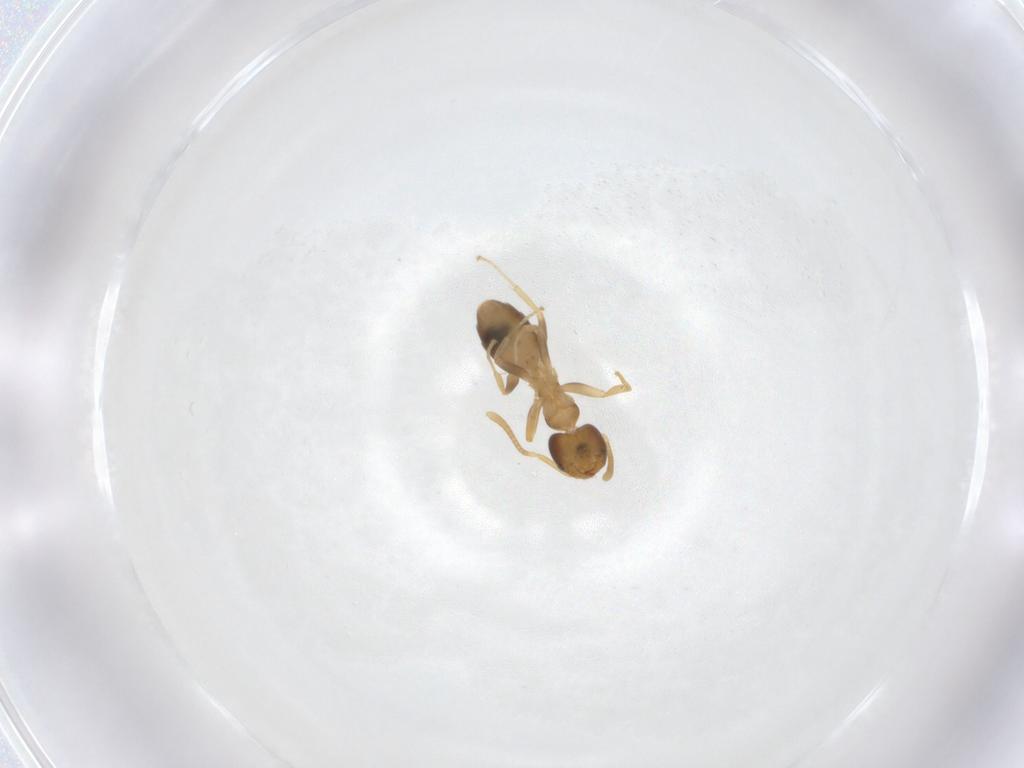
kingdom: Animalia
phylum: Arthropoda
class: Insecta
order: Hymenoptera
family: Formicidae
